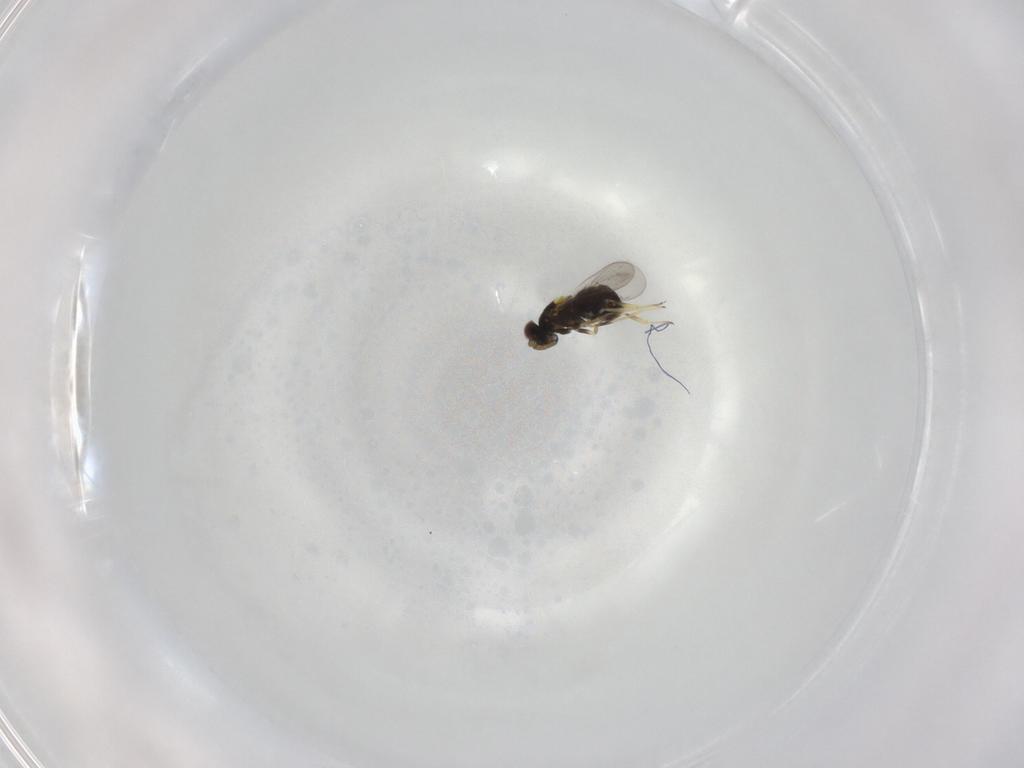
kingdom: Animalia
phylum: Arthropoda
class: Insecta
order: Hymenoptera
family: Aphelinidae
